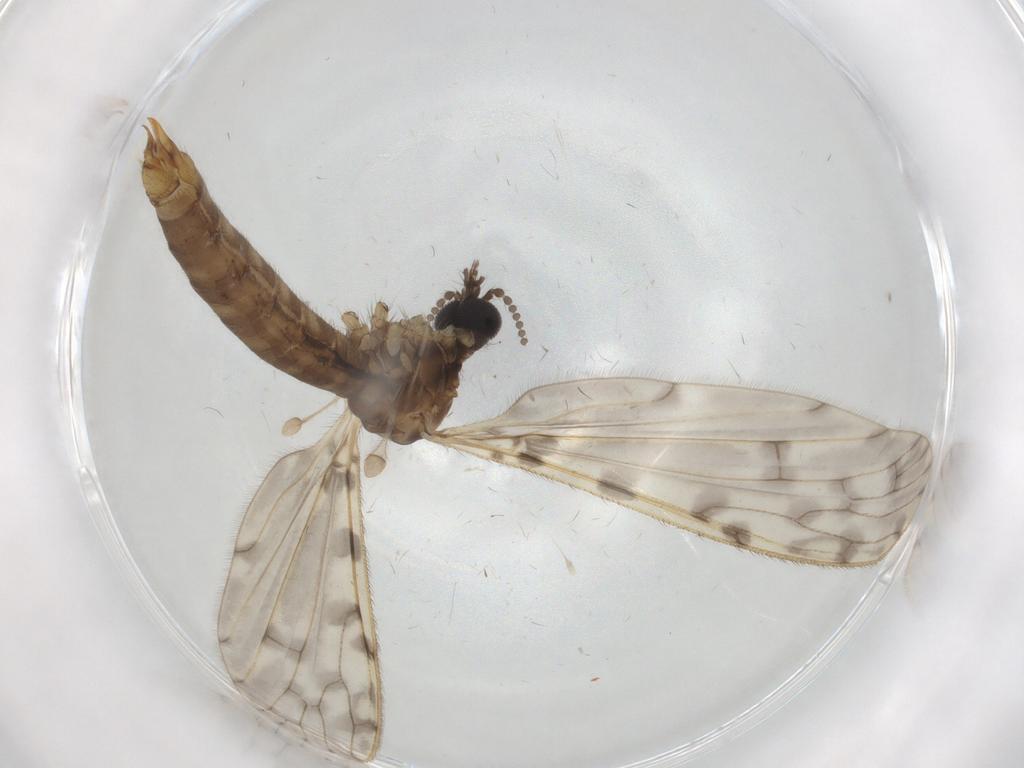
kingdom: Animalia
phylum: Arthropoda
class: Insecta
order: Diptera
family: Limoniidae
